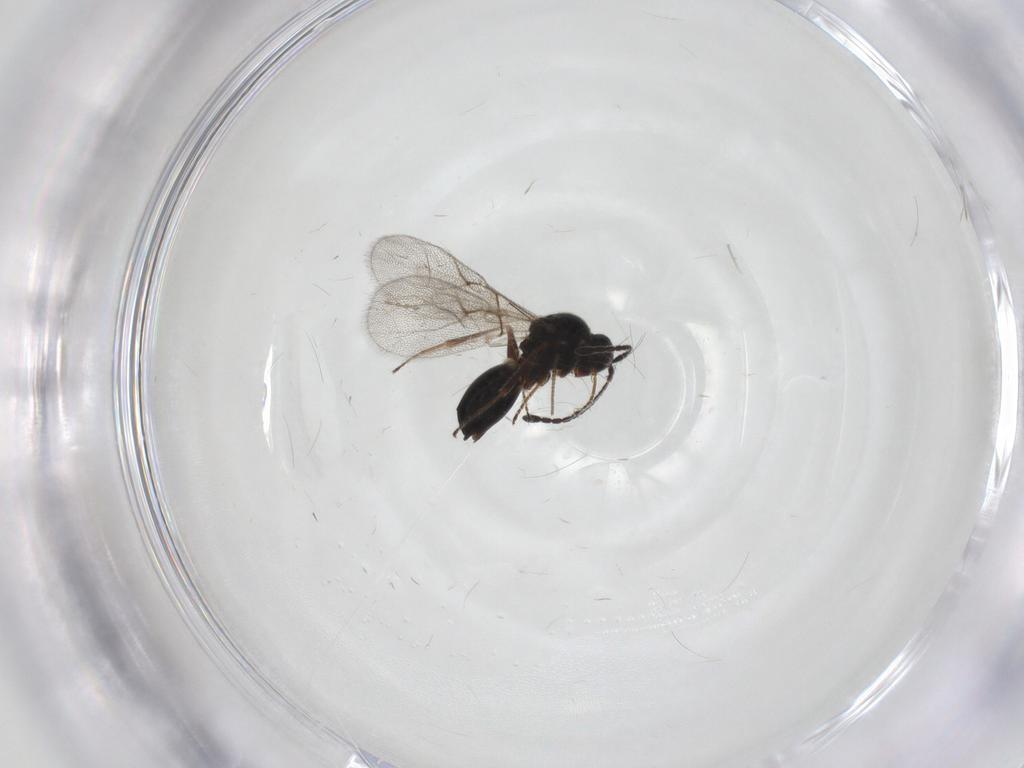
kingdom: Animalia
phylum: Arthropoda
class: Insecta
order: Hymenoptera
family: Figitidae
